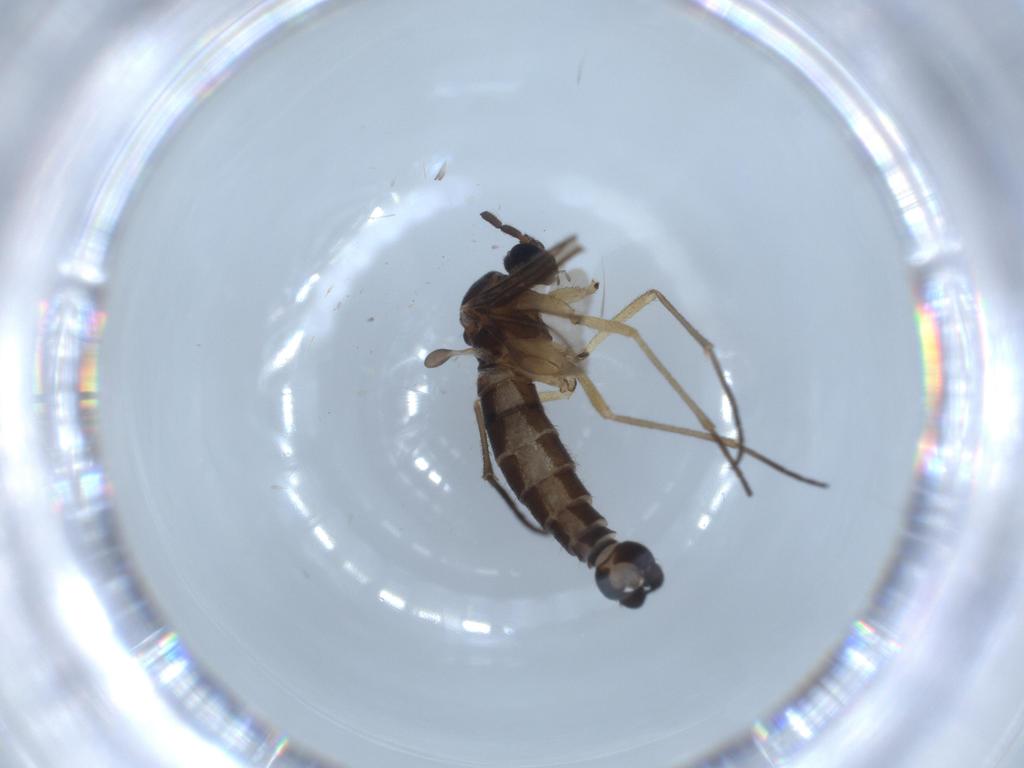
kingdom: Animalia
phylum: Arthropoda
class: Insecta
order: Diptera
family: Sciaridae
